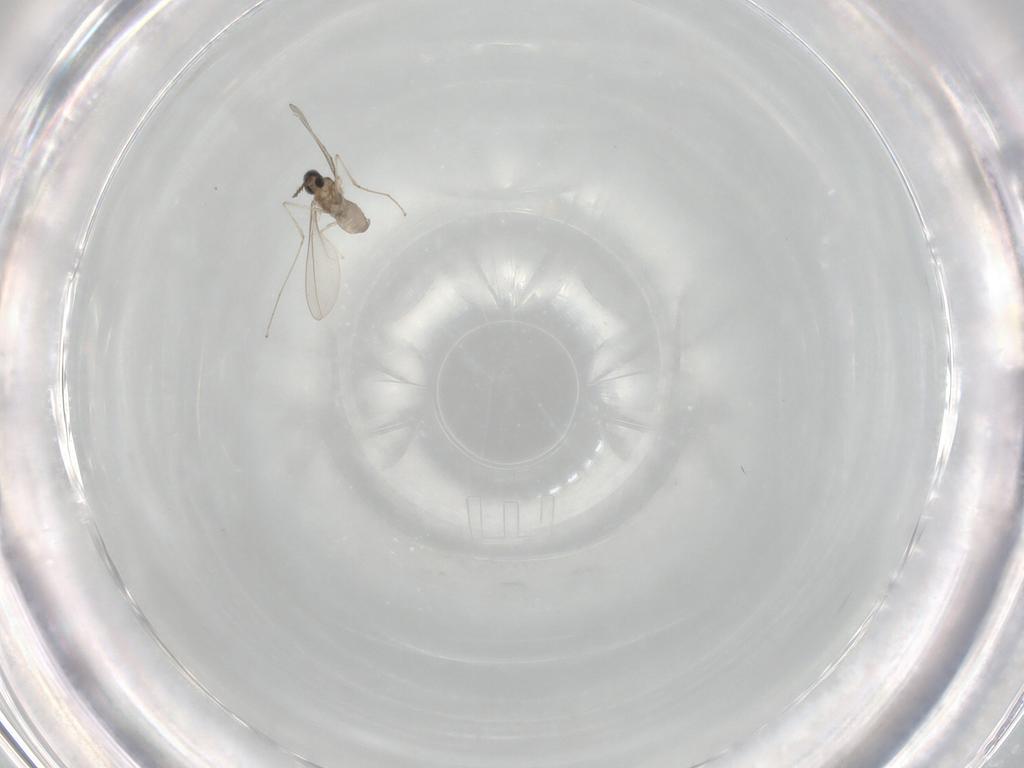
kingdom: Animalia
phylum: Arthropoda
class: Insecta
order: Diptera
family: Cecidomyiidae
